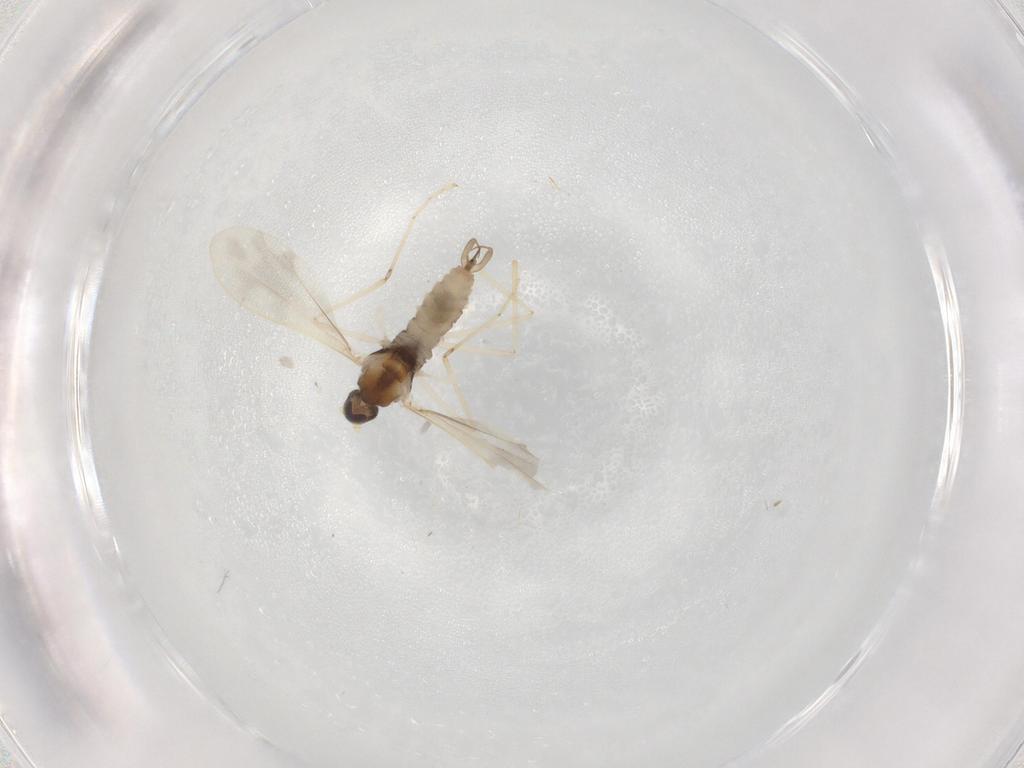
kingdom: Animalia
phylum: Arthropoda
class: Insecta
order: Diptera
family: Cecidomyiidae
